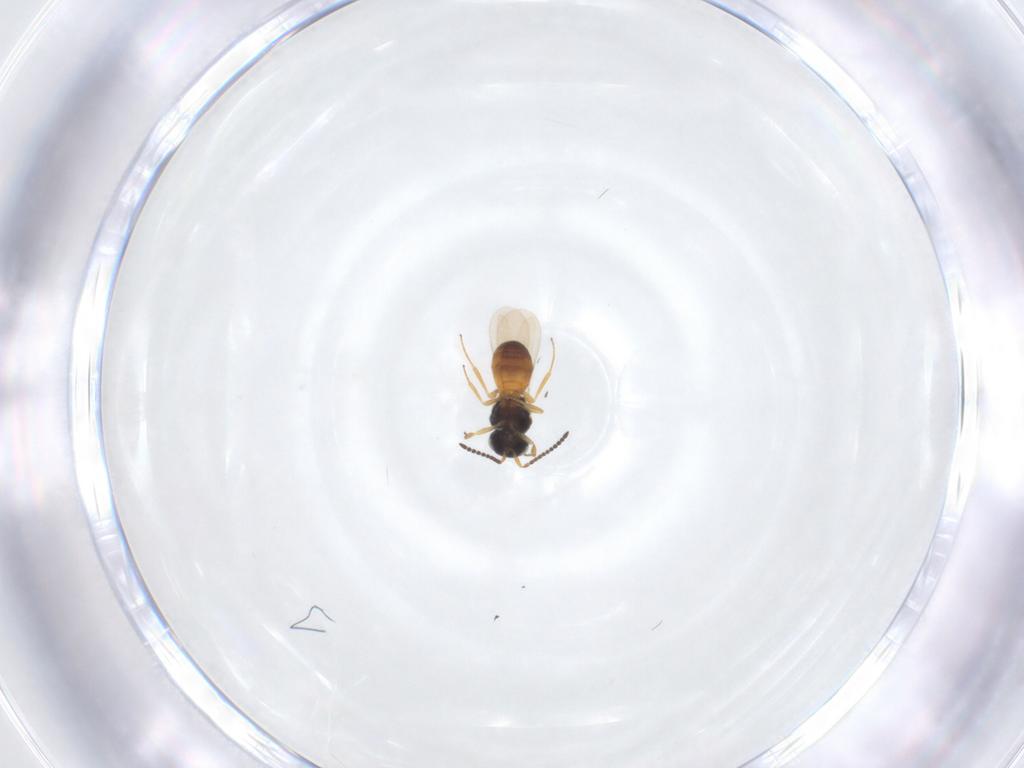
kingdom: Animalia
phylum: Arthropoda
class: Insecta
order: Hymenoptera
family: Scelionidae
